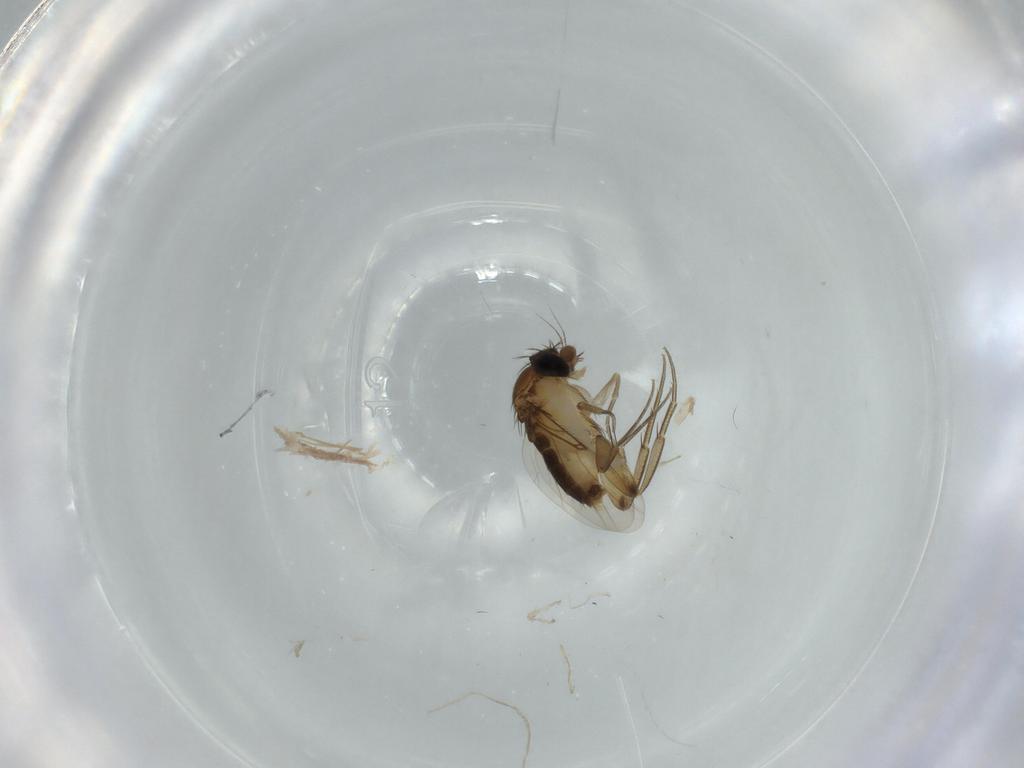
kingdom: Animalia
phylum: Arthropoda
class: Insecta
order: Diptera
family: Phoridae
